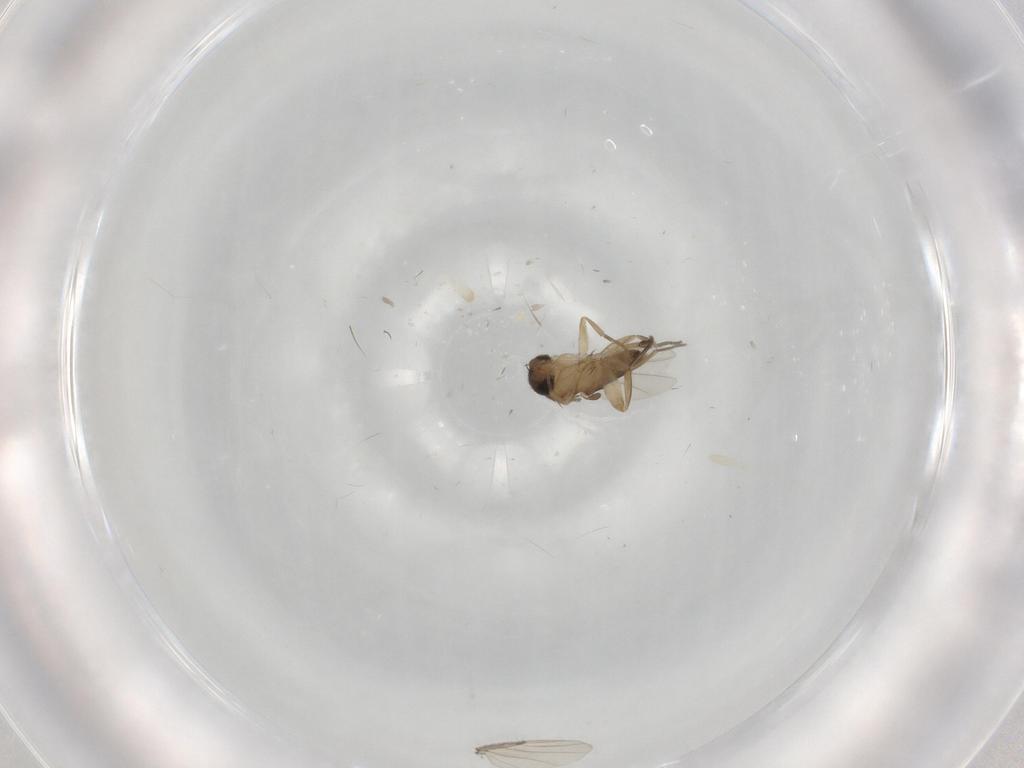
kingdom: Animalia
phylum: Arthropoda
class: Insecta
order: Diptera
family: Phoridae
